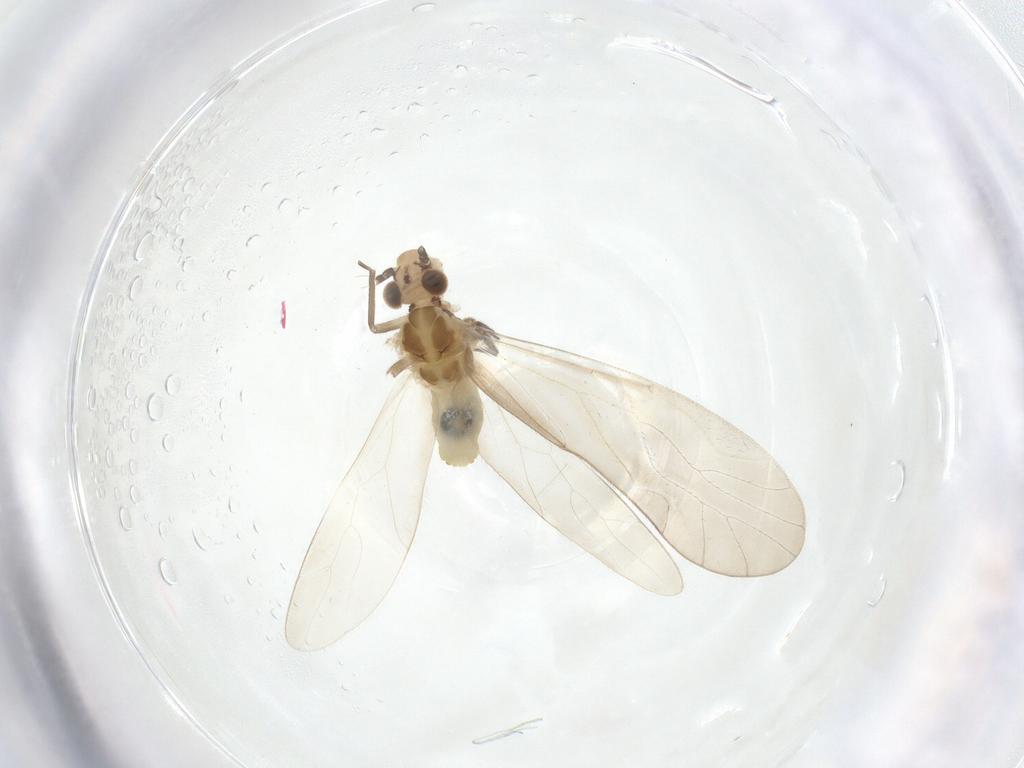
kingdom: Animalia
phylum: Arthropoda
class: Insecta
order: Psocodea
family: Caeciliusidae
